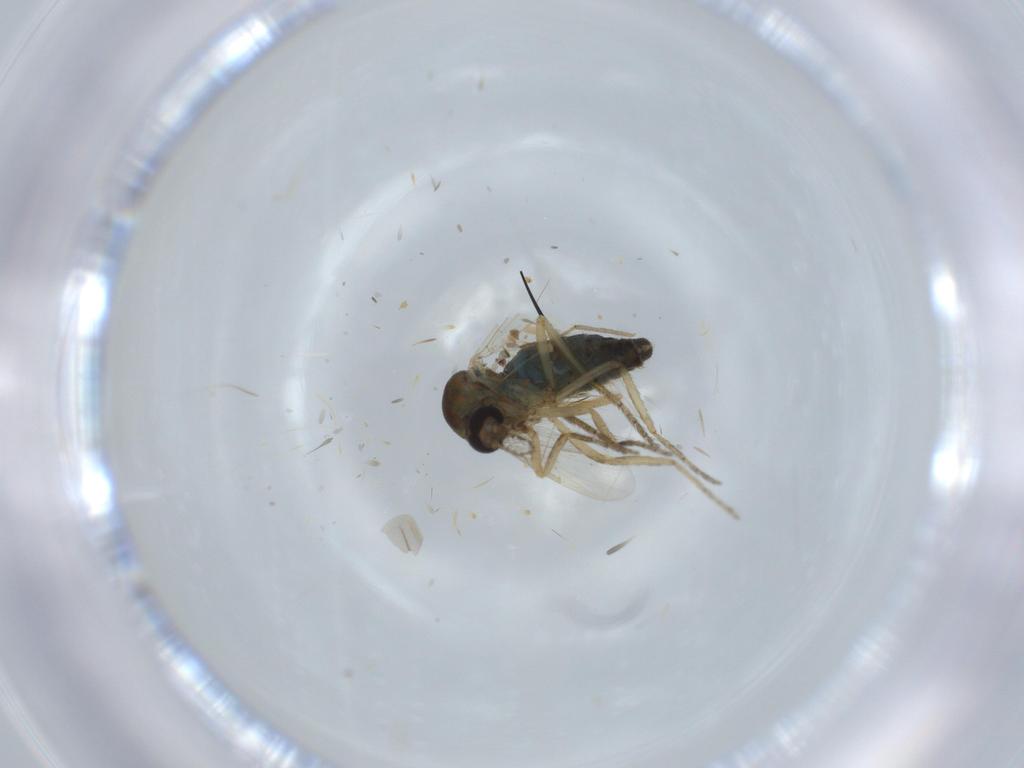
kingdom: Animalia
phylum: Arthropoda
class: Insecta
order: Diptera
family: Ceratopogonidae
